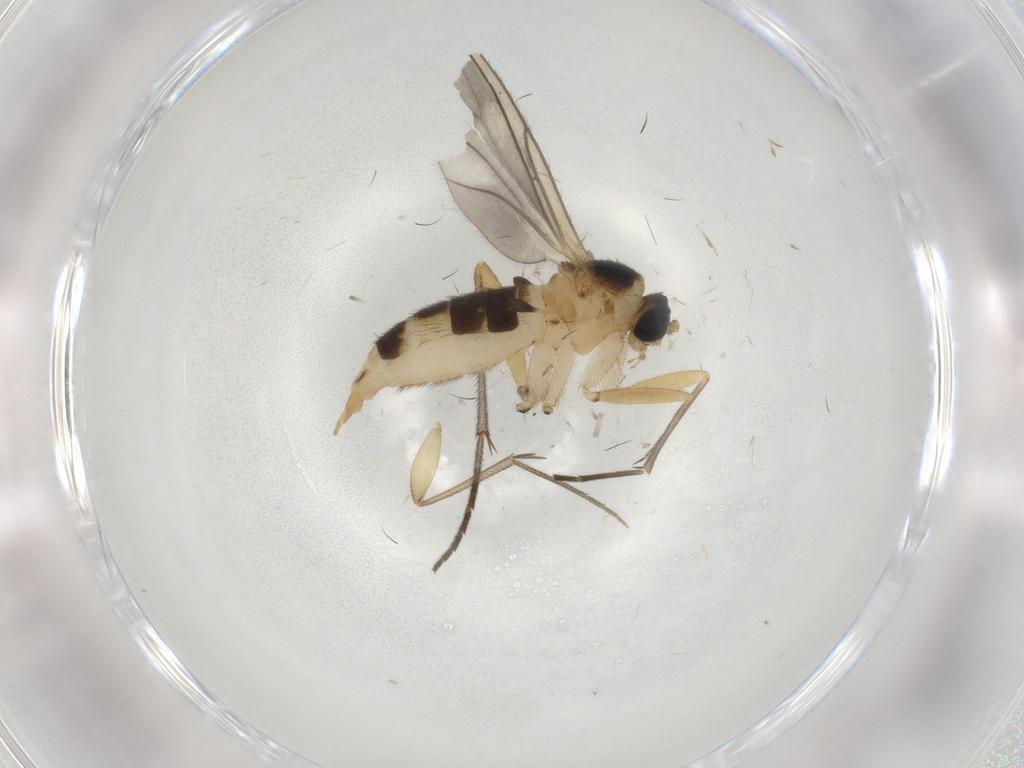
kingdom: Animalia
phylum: Arthropoda
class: Insecta
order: Diptera
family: Sciaridae
